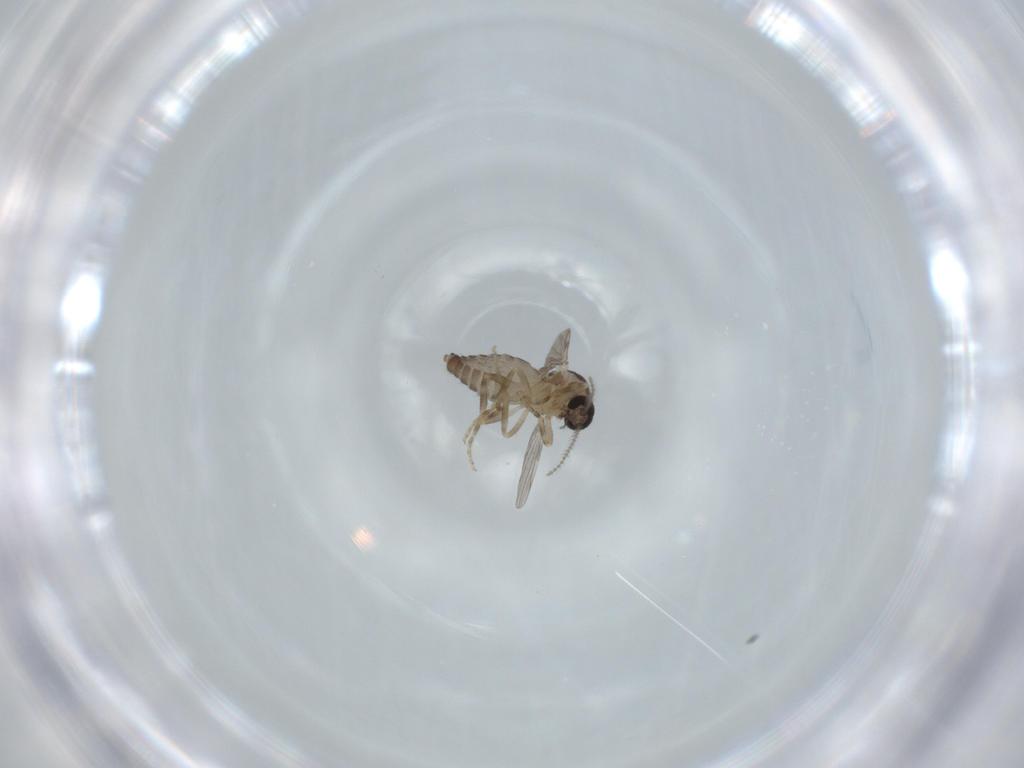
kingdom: Animalia
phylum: Arthropoda
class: Insecta
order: Diptera
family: Ceratopogonidae
